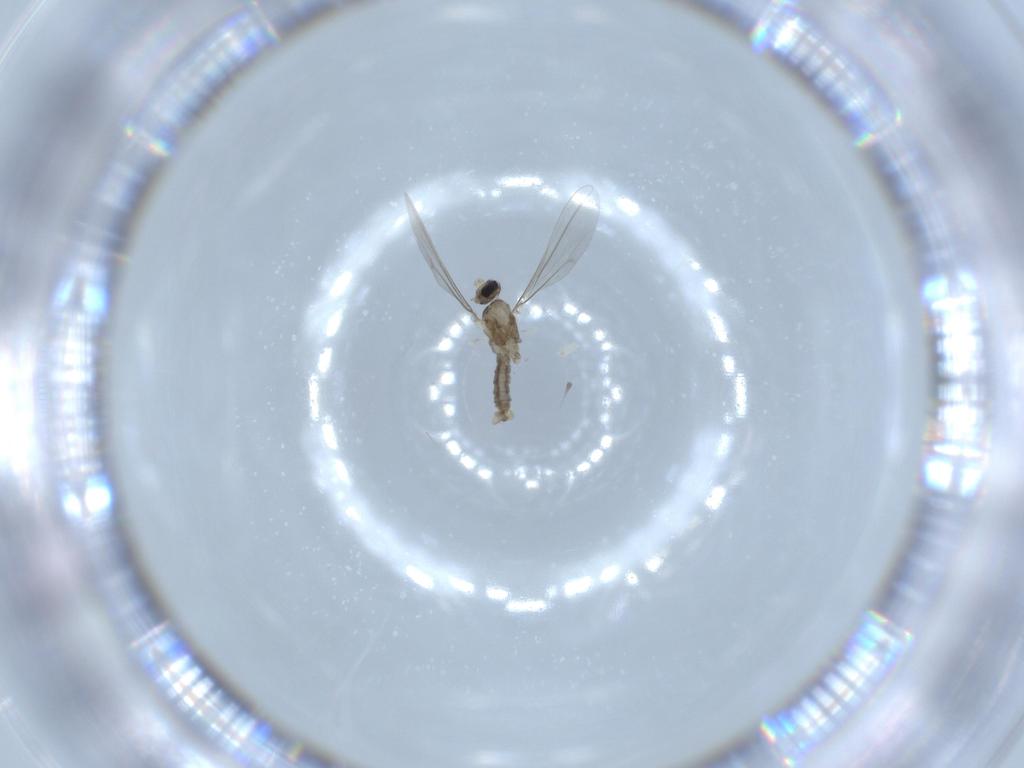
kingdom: Animalia
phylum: Arthropoda
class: Insecta
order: Diptera
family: Cecidomyiidae
